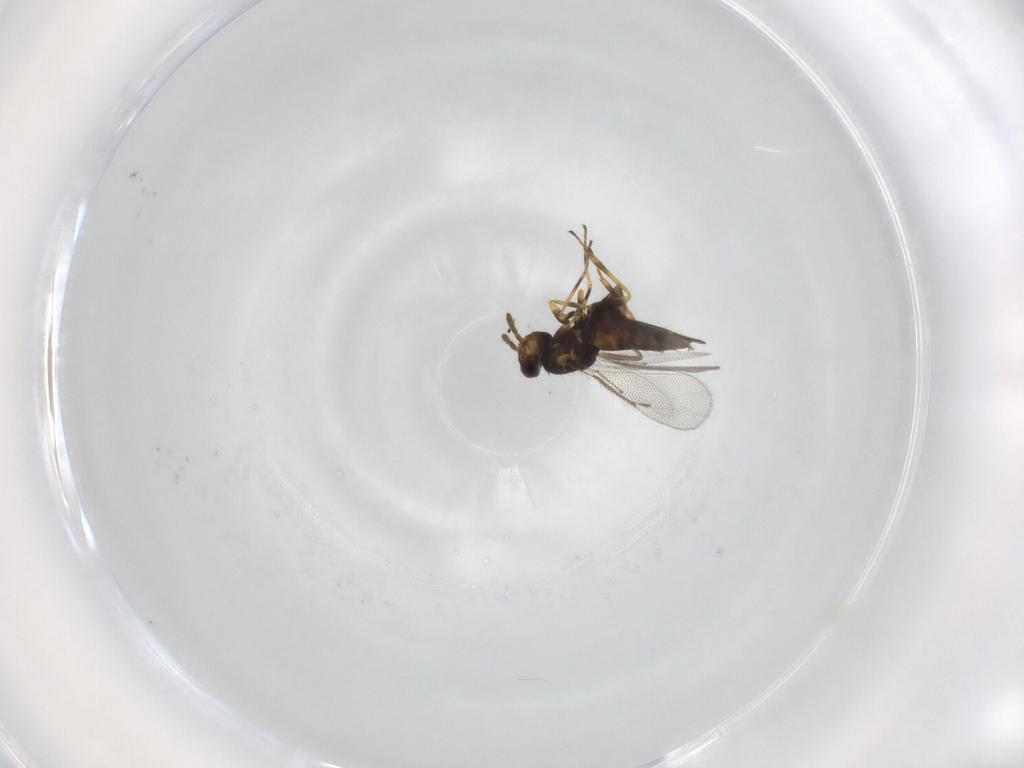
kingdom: Animalia
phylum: Arthropoda
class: Insecta
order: Hymenoptera
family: Eulophidae
